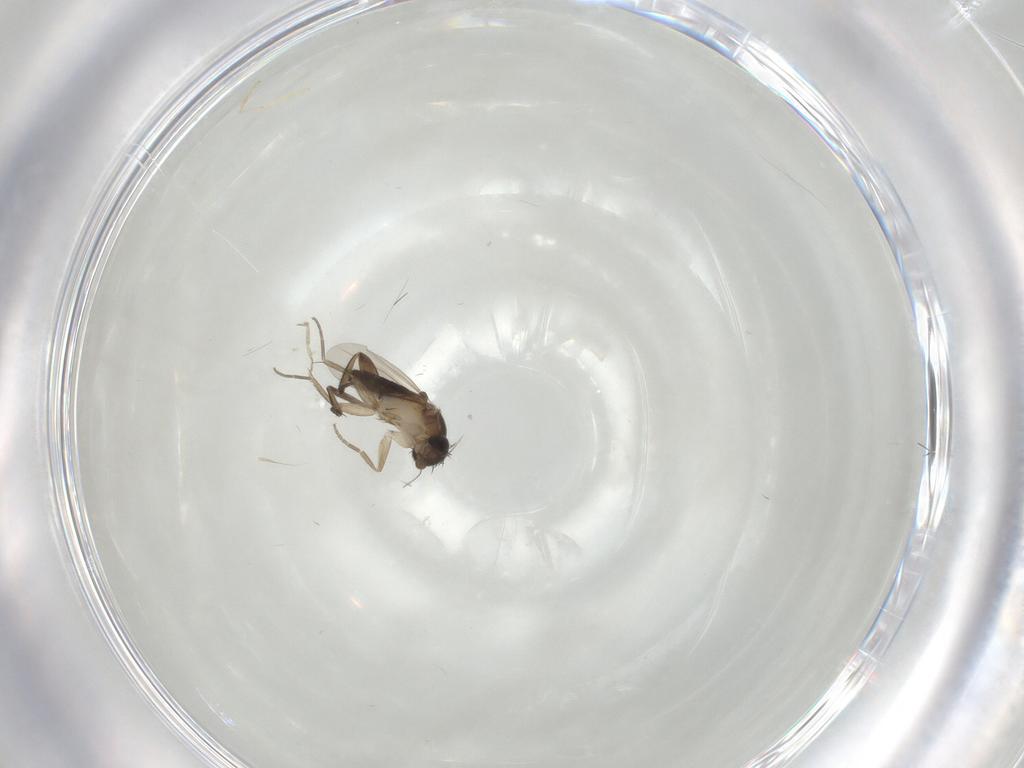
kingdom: Animalia
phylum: Arthropoda
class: Insecta
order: Diptera
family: Phoridae
